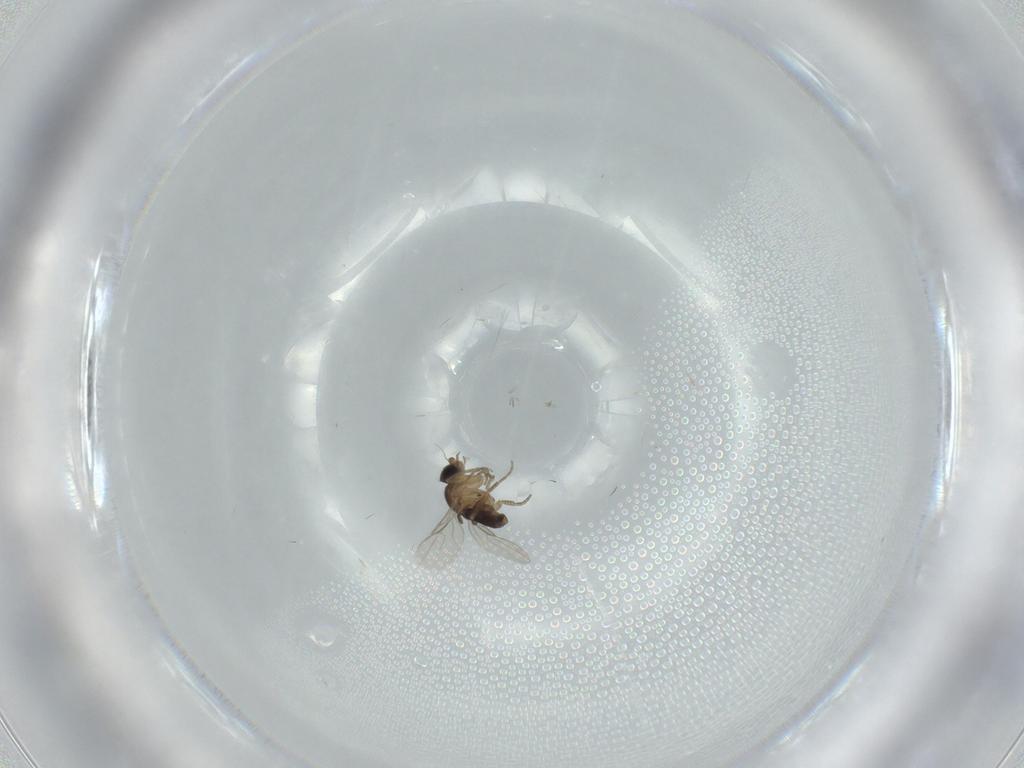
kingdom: Animalia
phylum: Arthropoda
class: Insecta
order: Diptera
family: Phoridae
